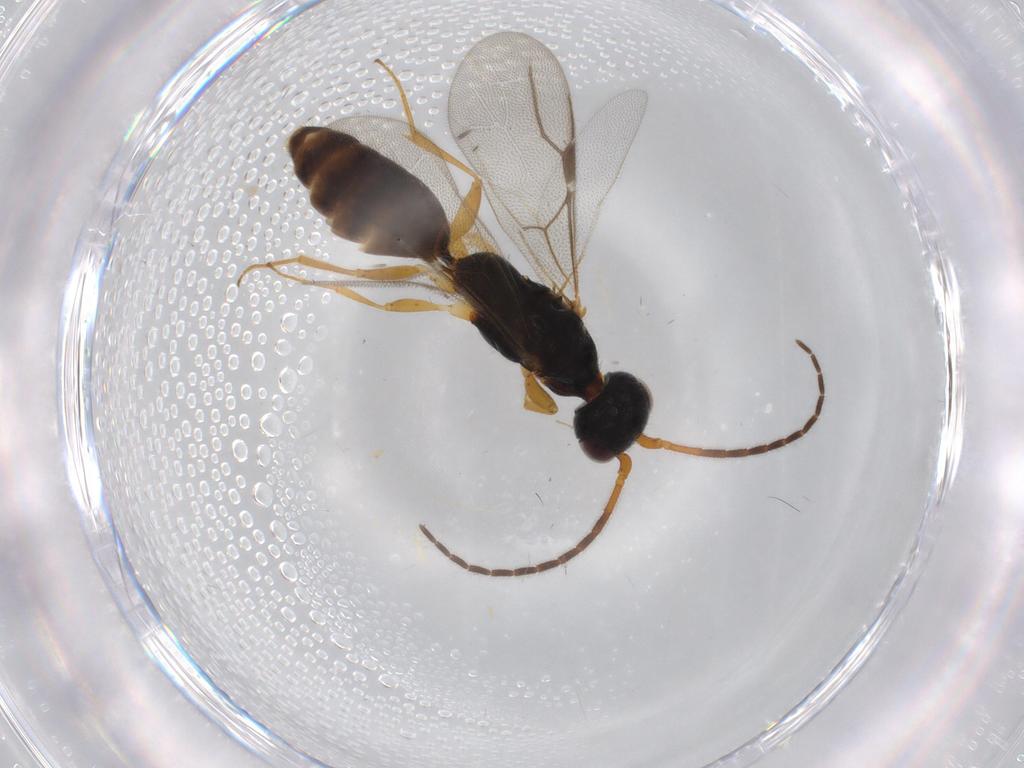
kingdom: Animalia
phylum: Arthropoda
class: Insecta
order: Hymenoptera
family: Bethylidae
